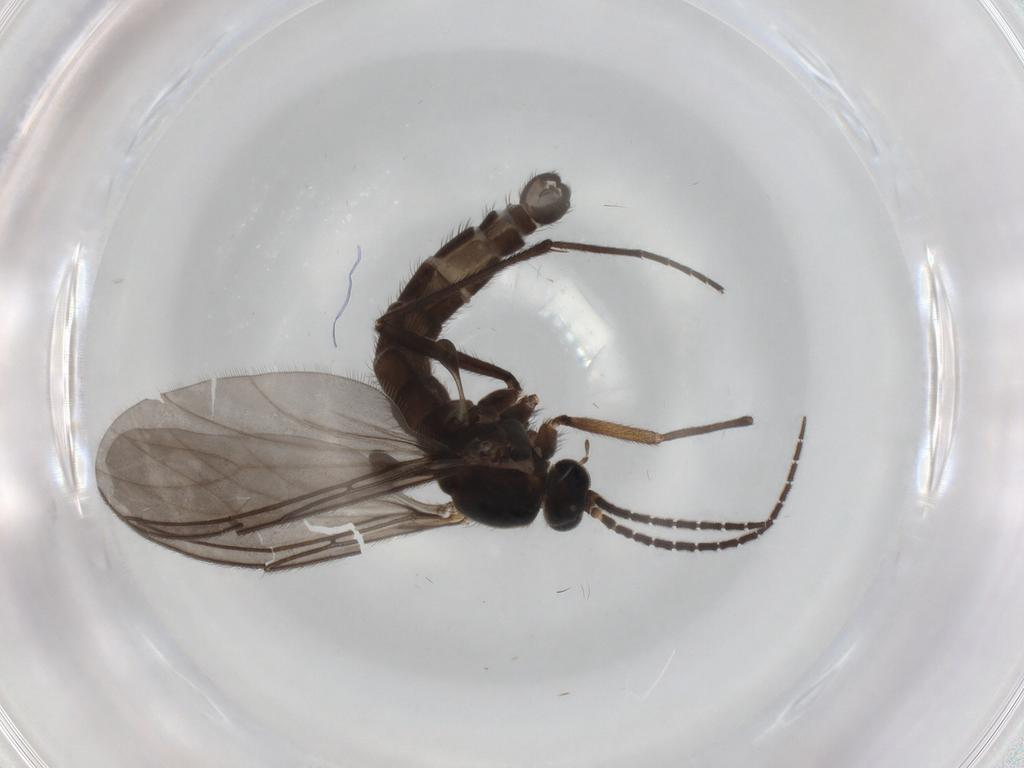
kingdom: Animalia
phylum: Arthropoda
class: Insecta
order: Diptera
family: Sciaridae
